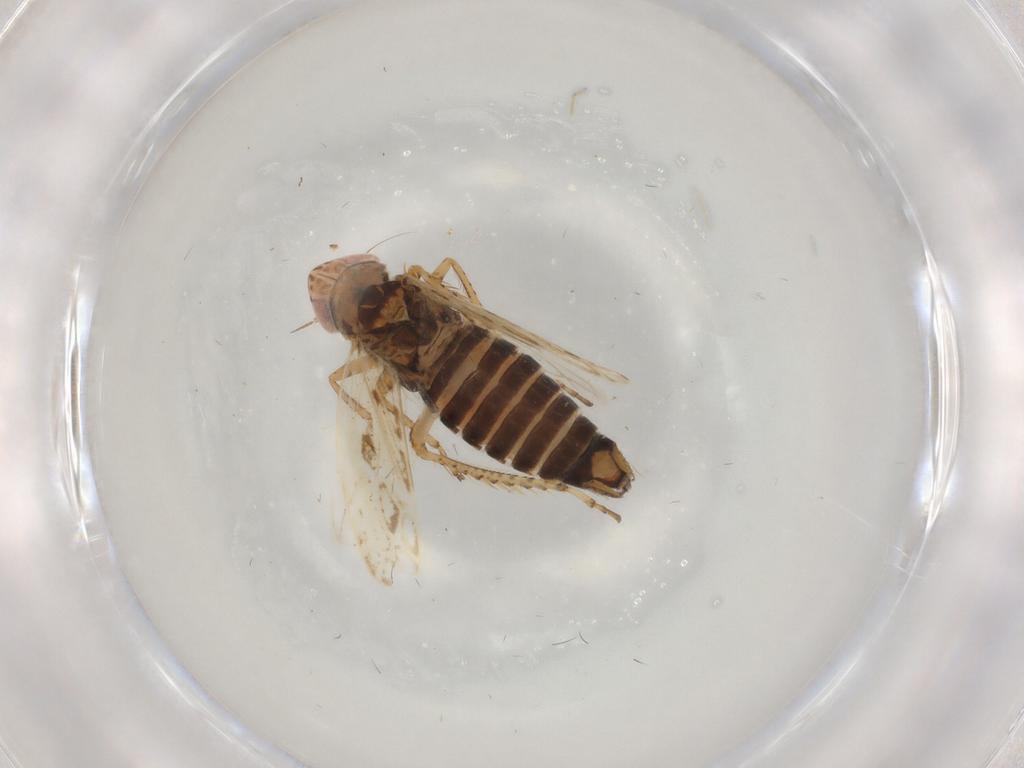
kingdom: Animalia
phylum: Arthropoda
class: Insecta
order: Hemiptera
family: Cicadellidae
